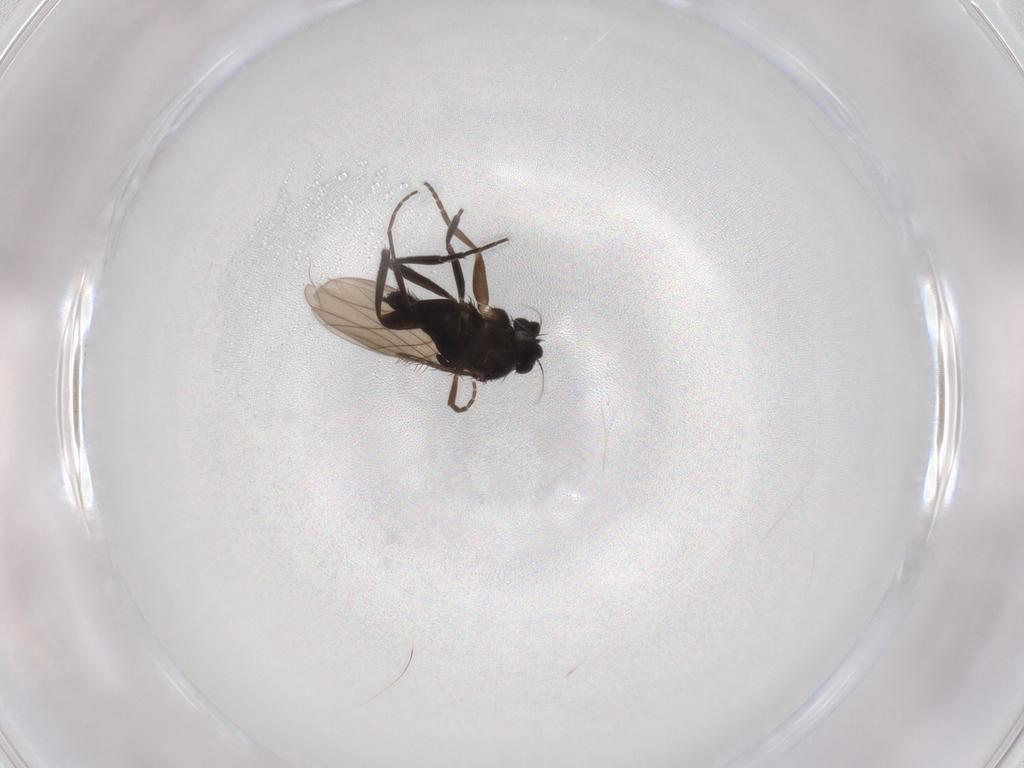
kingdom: Animalia
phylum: Arthropoda
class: Insecta
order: Diptera
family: Phoridae
